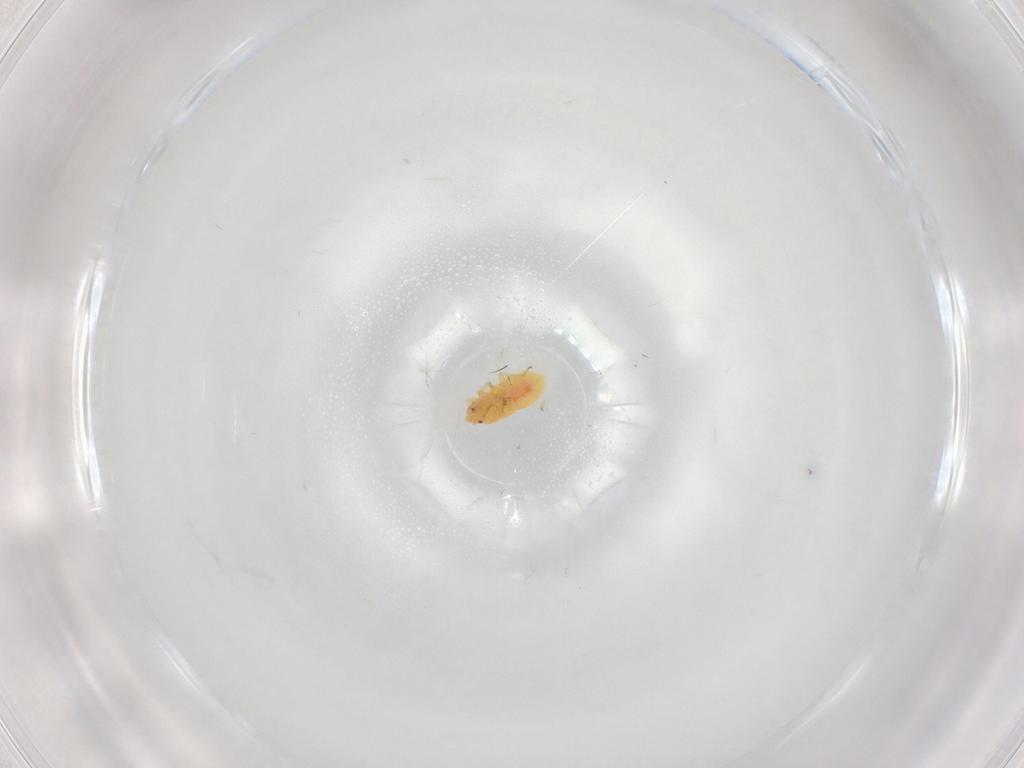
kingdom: Animalia
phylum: Arthropoda
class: Insecta
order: Hemiptera
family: Anthocoridae
